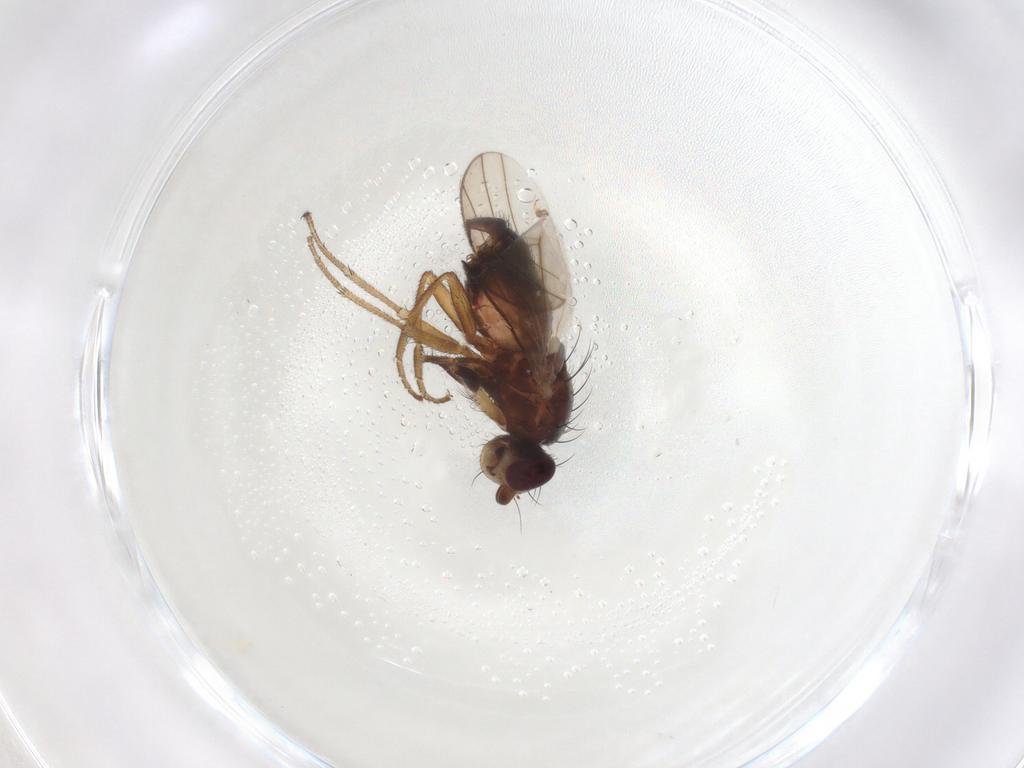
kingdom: Animalia
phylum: Arthropoda
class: Insecta
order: Diptera
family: Heleomyzidae
